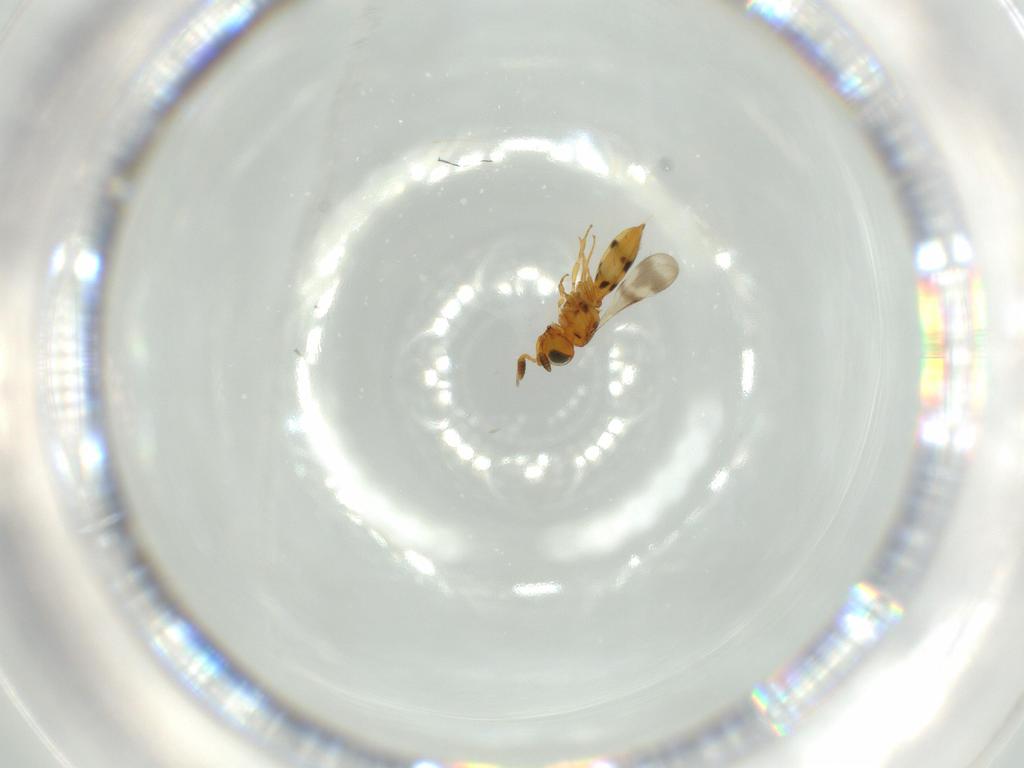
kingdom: Animalia
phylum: Arthropoda
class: Insecta
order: Hymenoptera
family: Scelionidae
